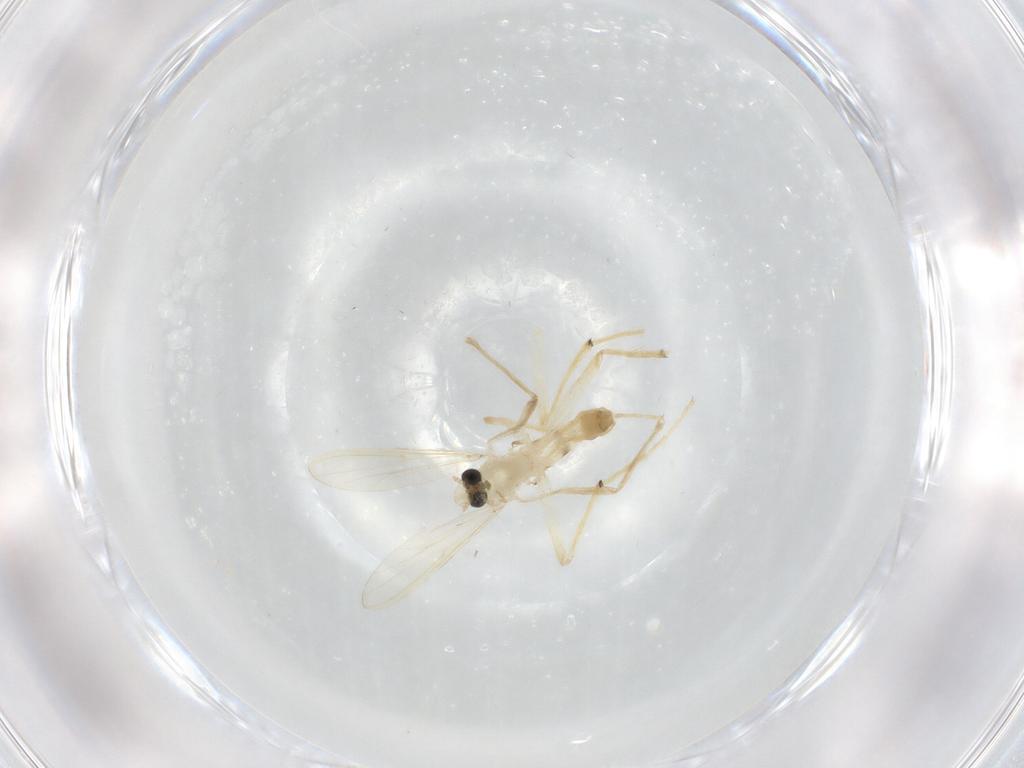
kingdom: Animalia
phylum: Arthropoda
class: Insecta
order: Diptera
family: Chironomidae
